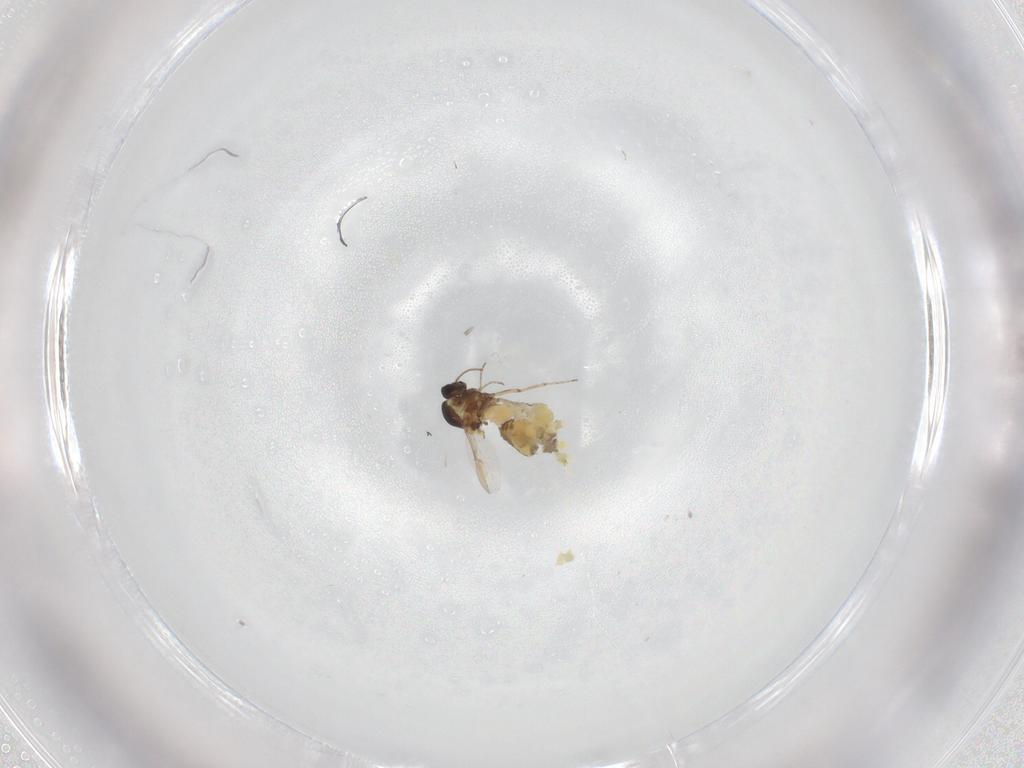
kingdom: Animalia
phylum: Arthropoda
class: Insecta
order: Diptera
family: Ceratopogonidae
